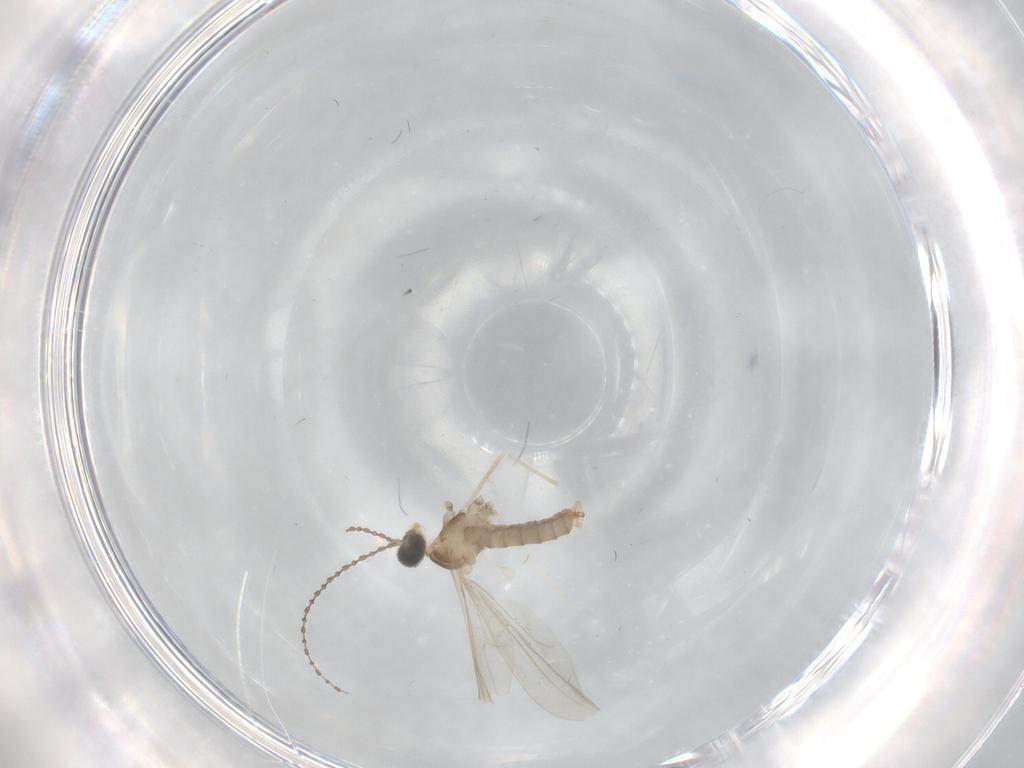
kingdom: Animalia
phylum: Arthropoda
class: Insecta
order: Diptera
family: Cecidomyiidae
